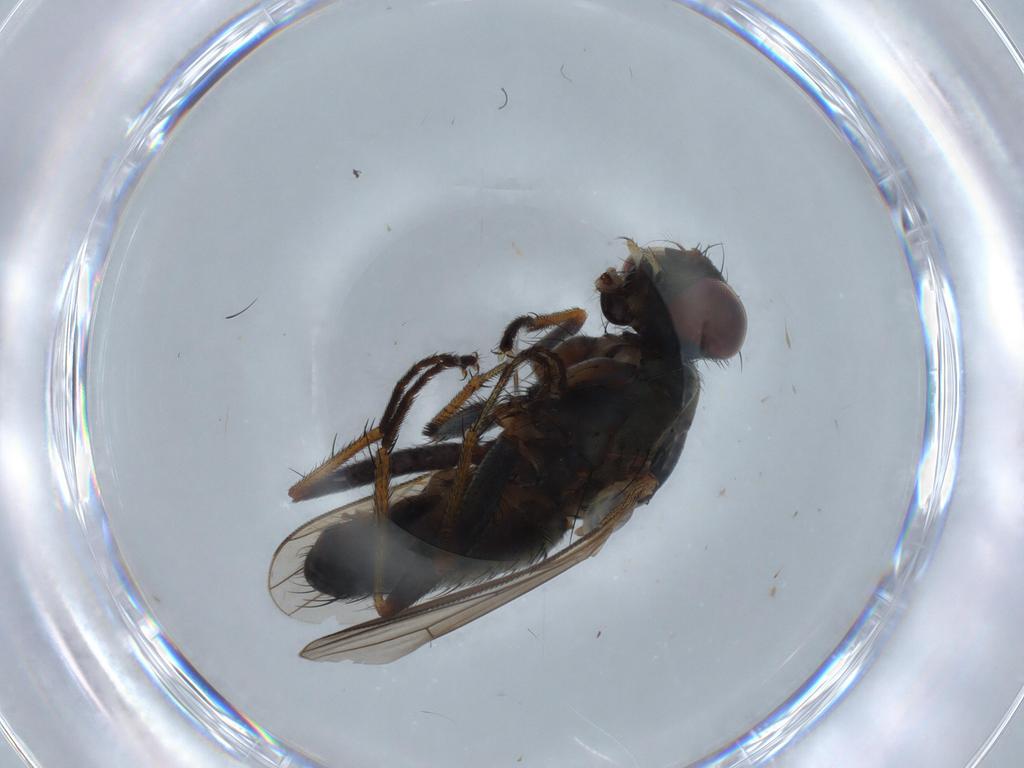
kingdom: Animalia
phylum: Arthropoda
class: Insecta
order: Diptera
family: Muscidae
